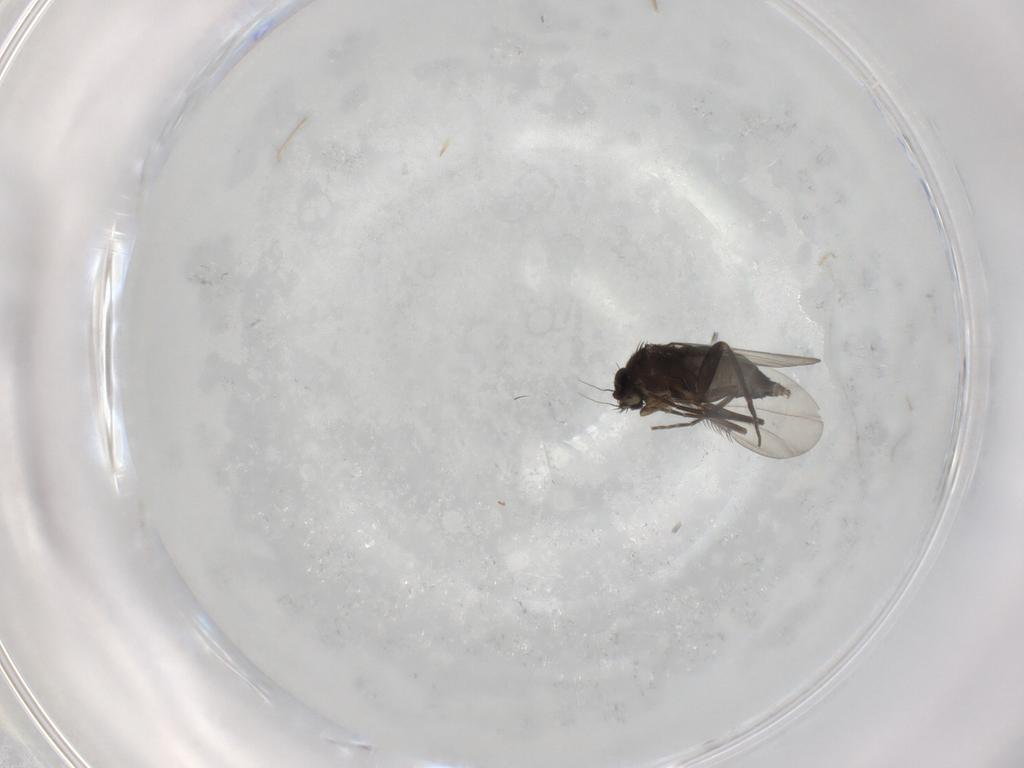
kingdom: Animalia
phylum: Arthropoda
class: Insecta
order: Diptera
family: Phoridae
